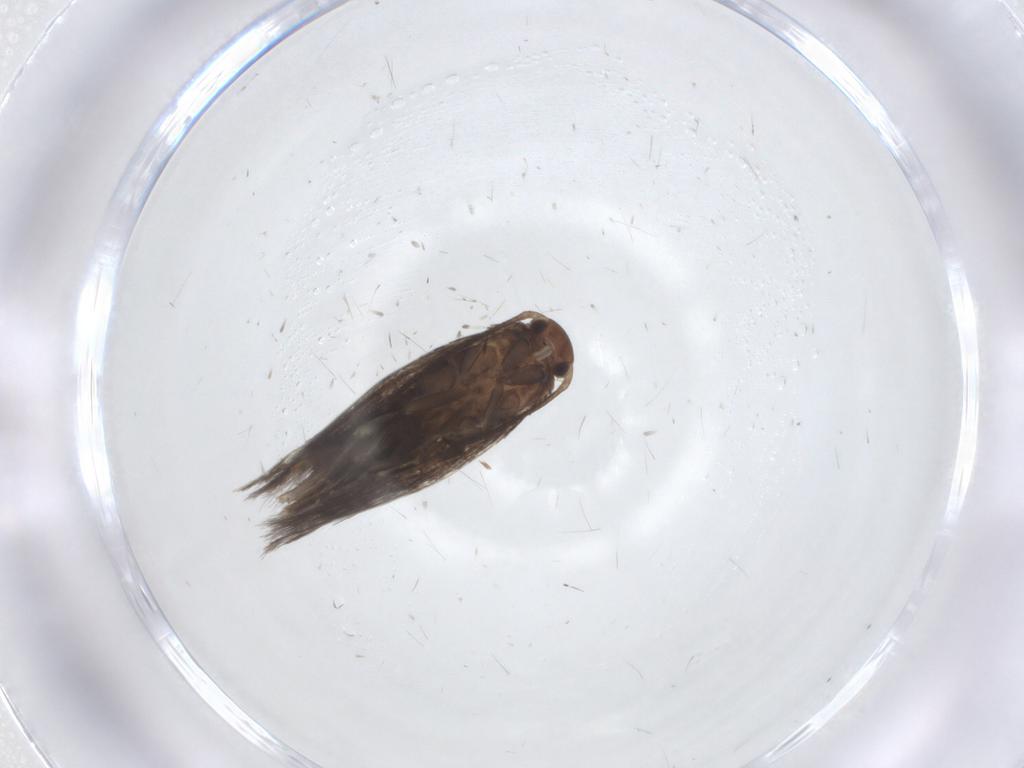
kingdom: Animalia
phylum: Arthropoda
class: Insecta
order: Lepidoptera
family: Elachistidae
